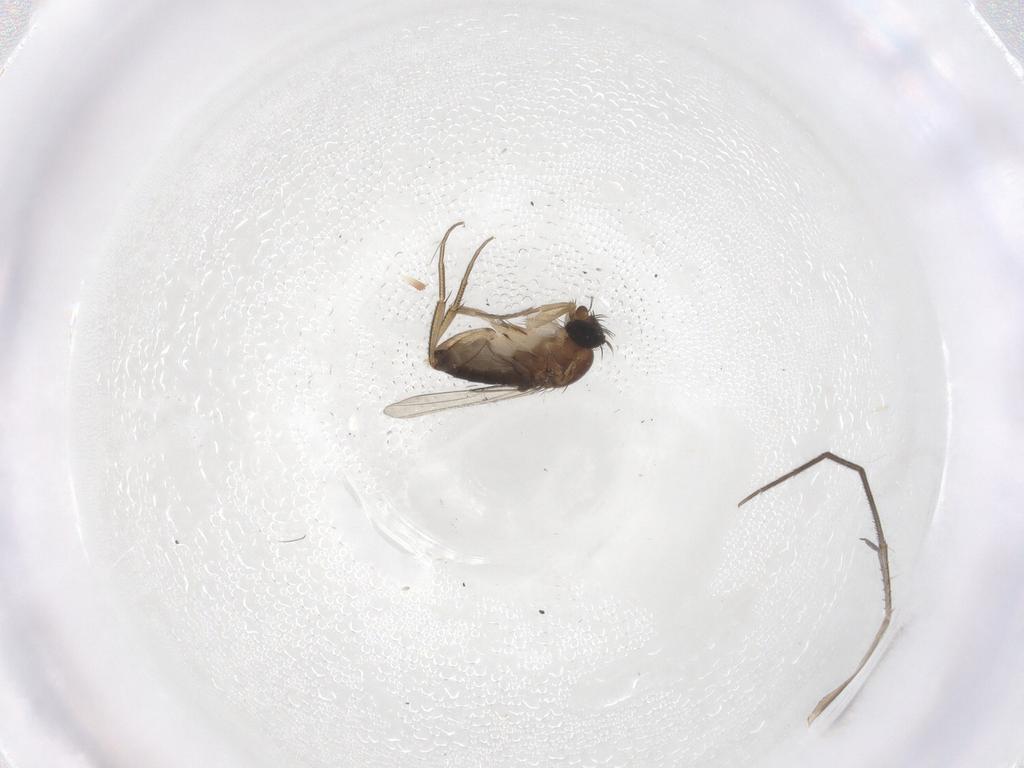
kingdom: Animalia
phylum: Arthropoda
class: Insecta
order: Diptera
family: Phoridae
